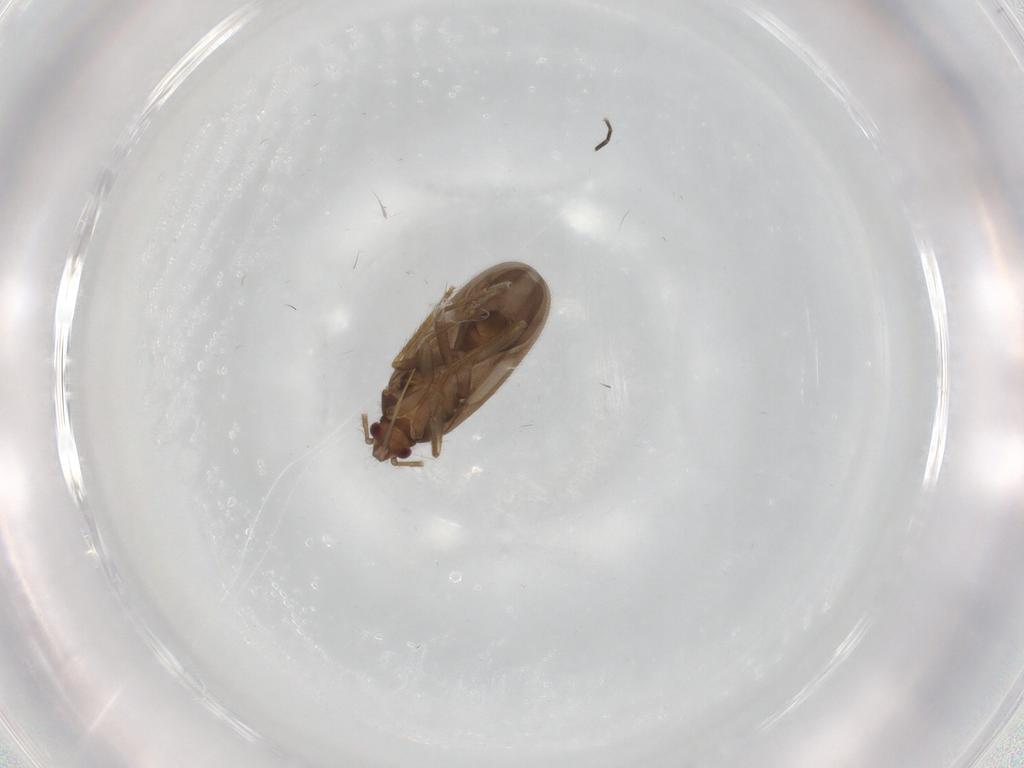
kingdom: Animalia
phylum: Arthropoda
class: Insecta
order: Hemiptera
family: Ceratocombidae
